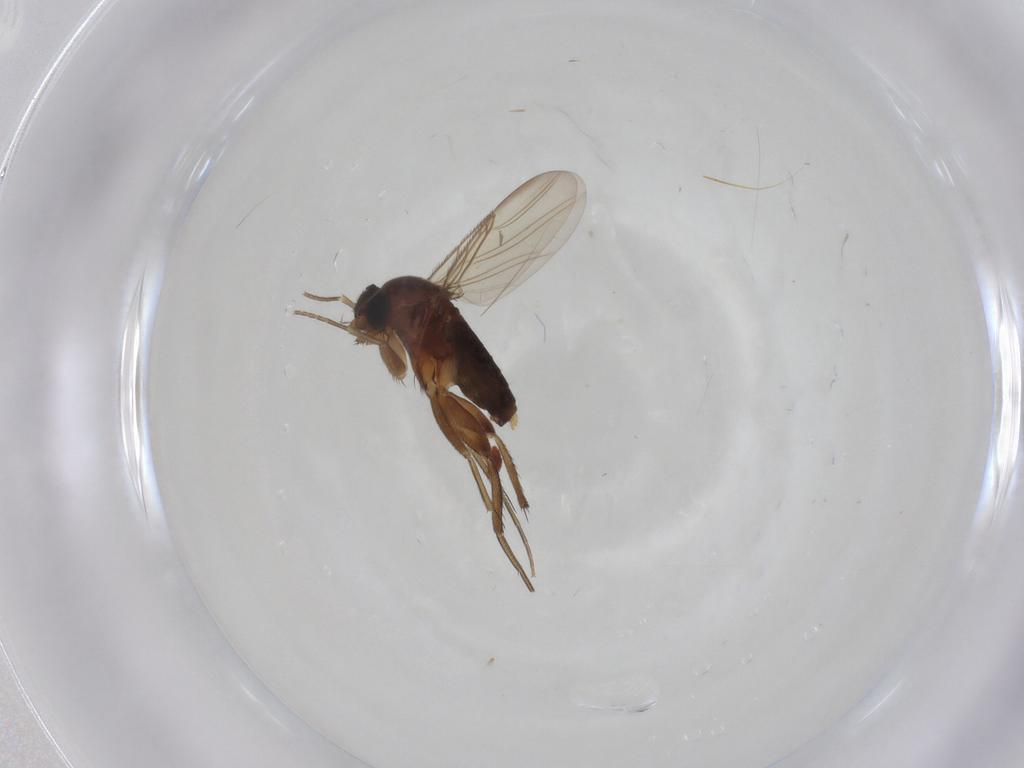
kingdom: Animalia
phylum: Arthropoda
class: Insecta
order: Diptera
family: Phoridae
